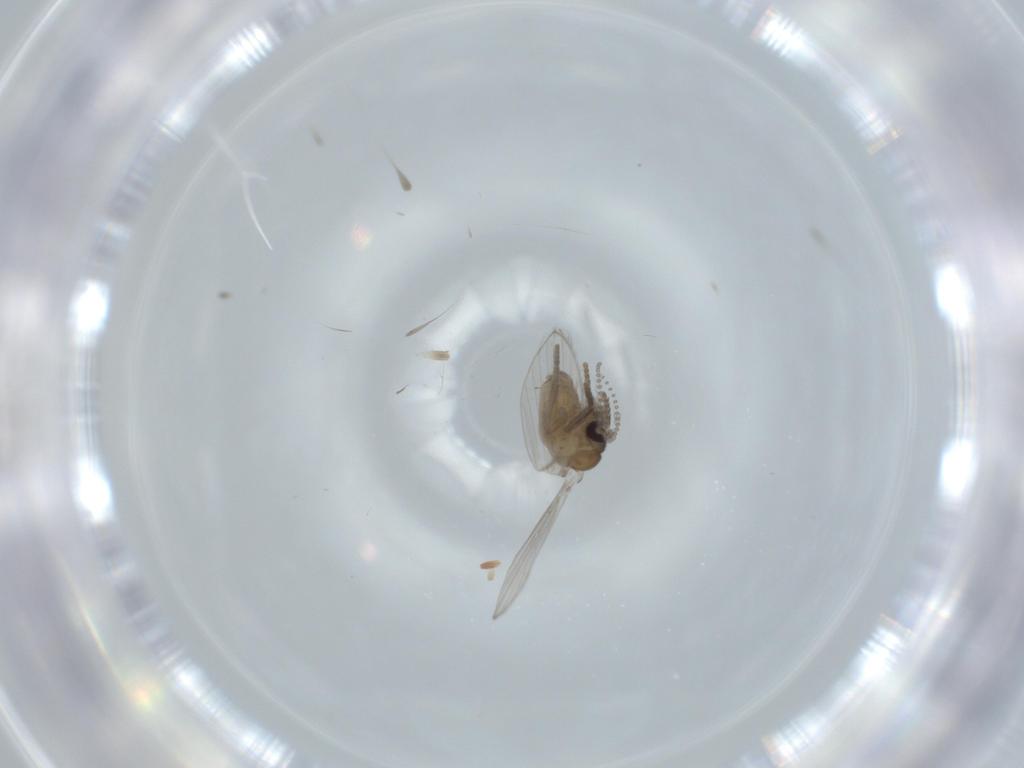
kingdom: Animalia
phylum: Arthropoda
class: Insecta
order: Diptera
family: Psychodidae
